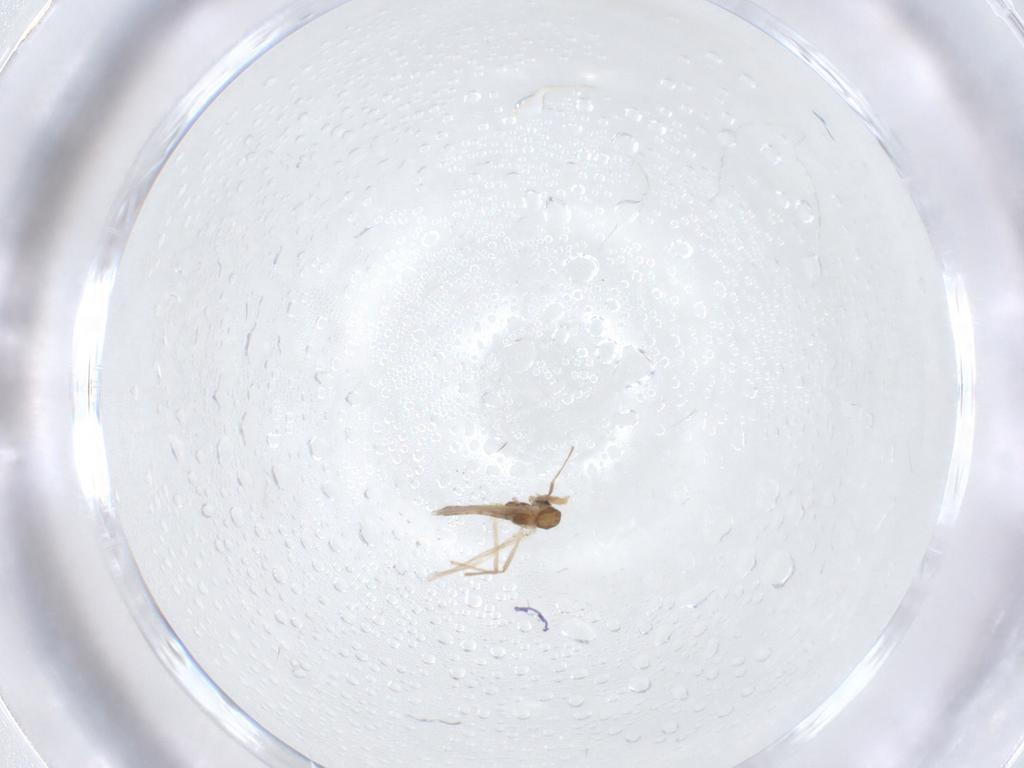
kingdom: Animalia
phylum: Arthropoda
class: Insecta
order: Diptera
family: Chironomidae
